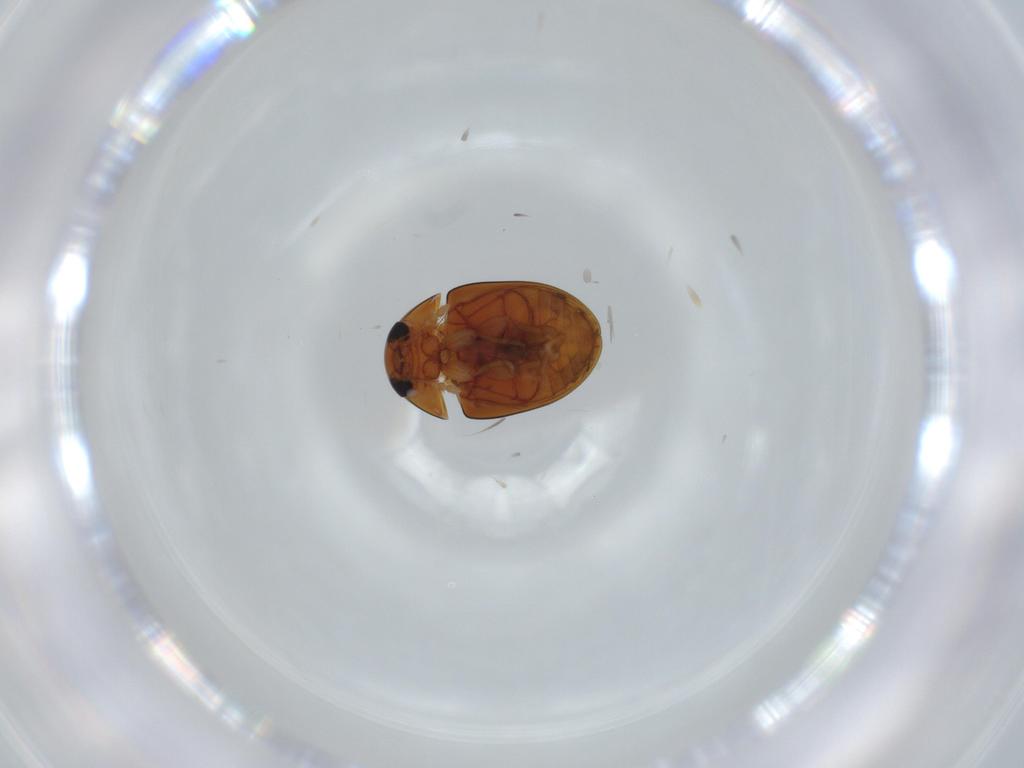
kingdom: Animalia
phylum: Arthropoda
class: Insecta
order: Coleoptera
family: Phalacridae
